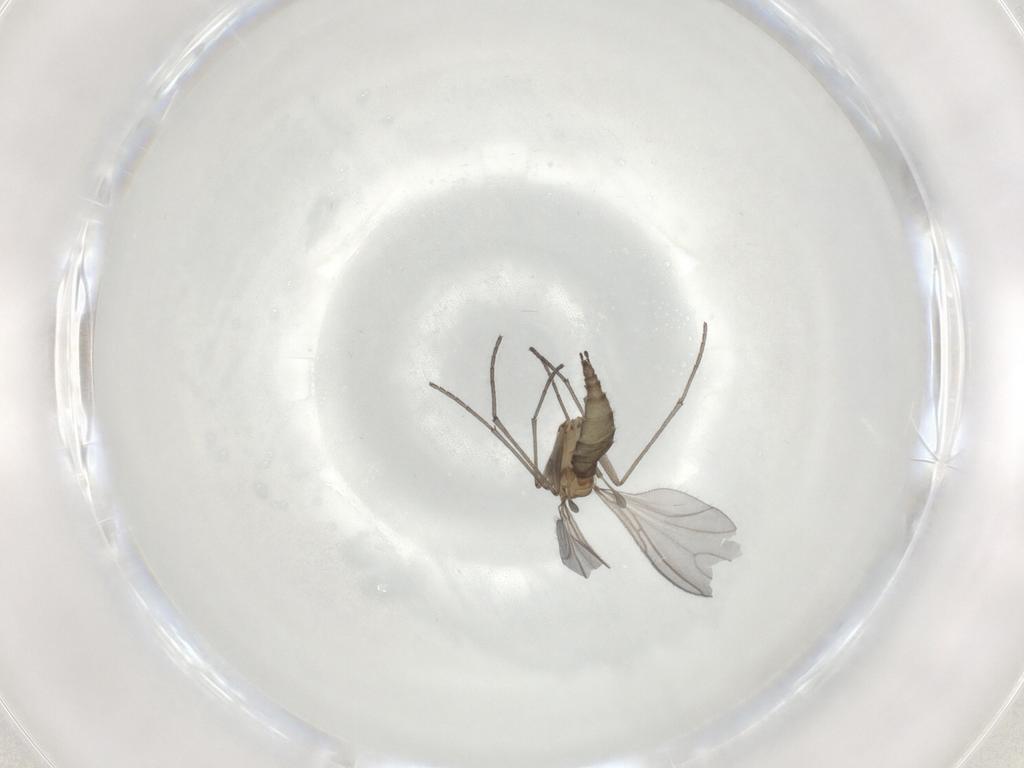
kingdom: Animalia
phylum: Arthropoda
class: Insecta
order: Diptera
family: Sciaridae
